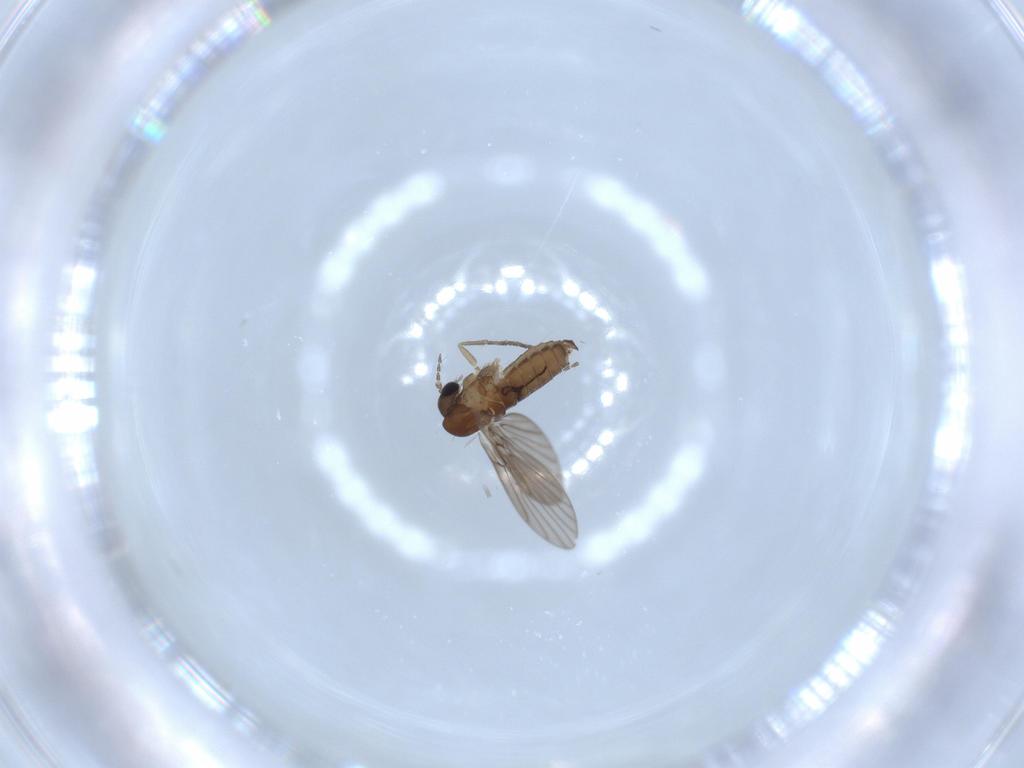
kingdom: Animalia
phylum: Arthropoda
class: Insecta
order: Diptera
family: Psychodidae
